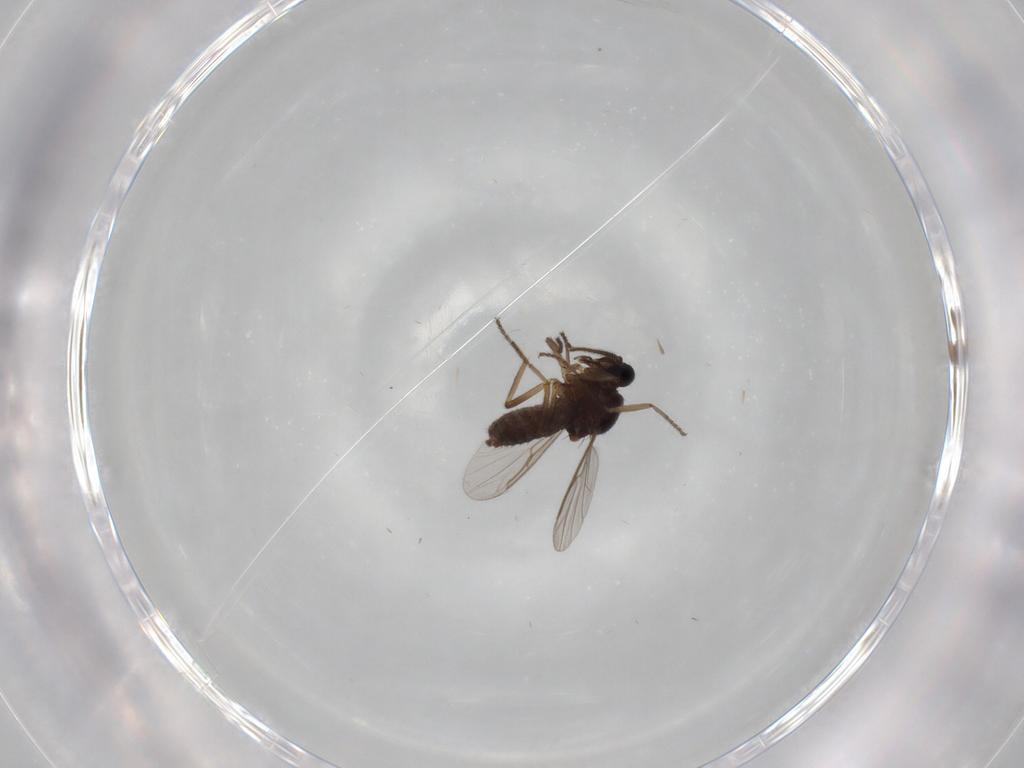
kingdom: Animalia
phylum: Arthropoda
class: Insecta
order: Diptera
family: Ceratopogonidae
